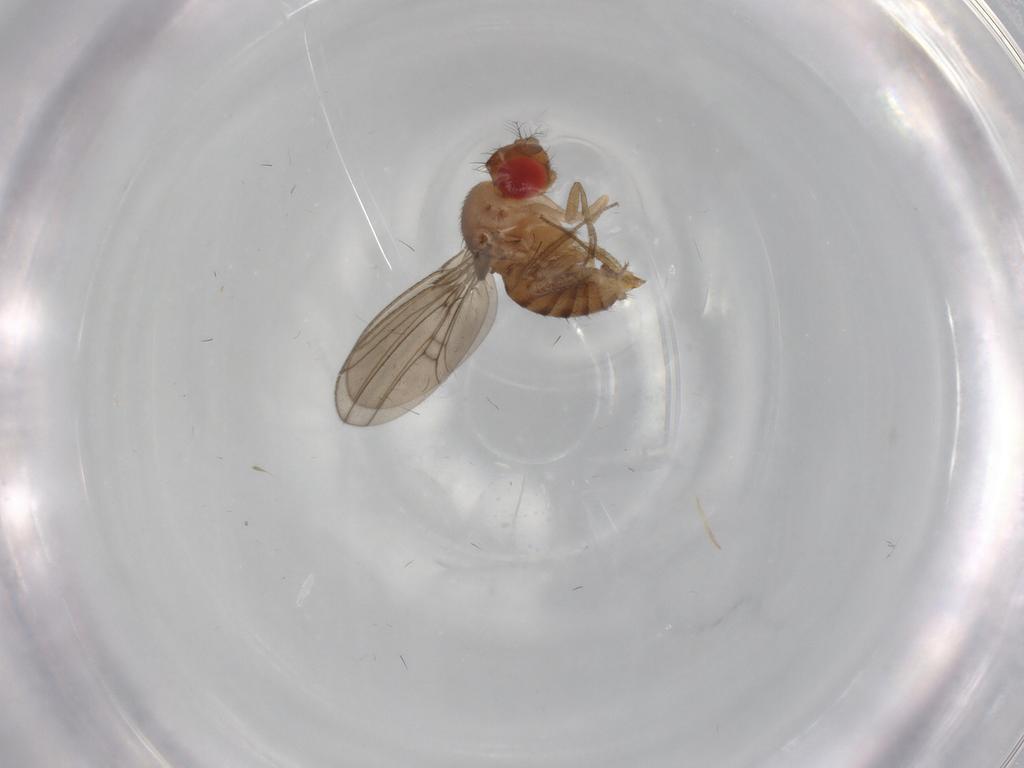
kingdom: Animalia
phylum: Arthropoda
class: Insecta
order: Diptera
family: Drosophilidae
